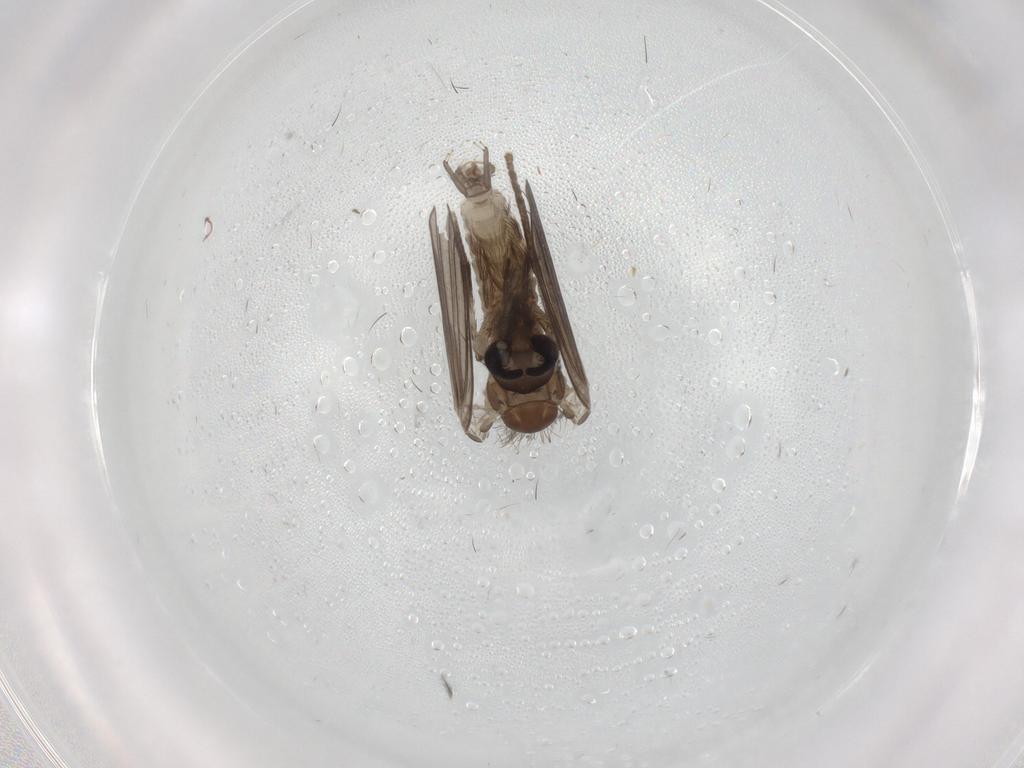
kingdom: Animalia
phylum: Arthropoda
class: Insecta
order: Diptera
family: Psychodidae
